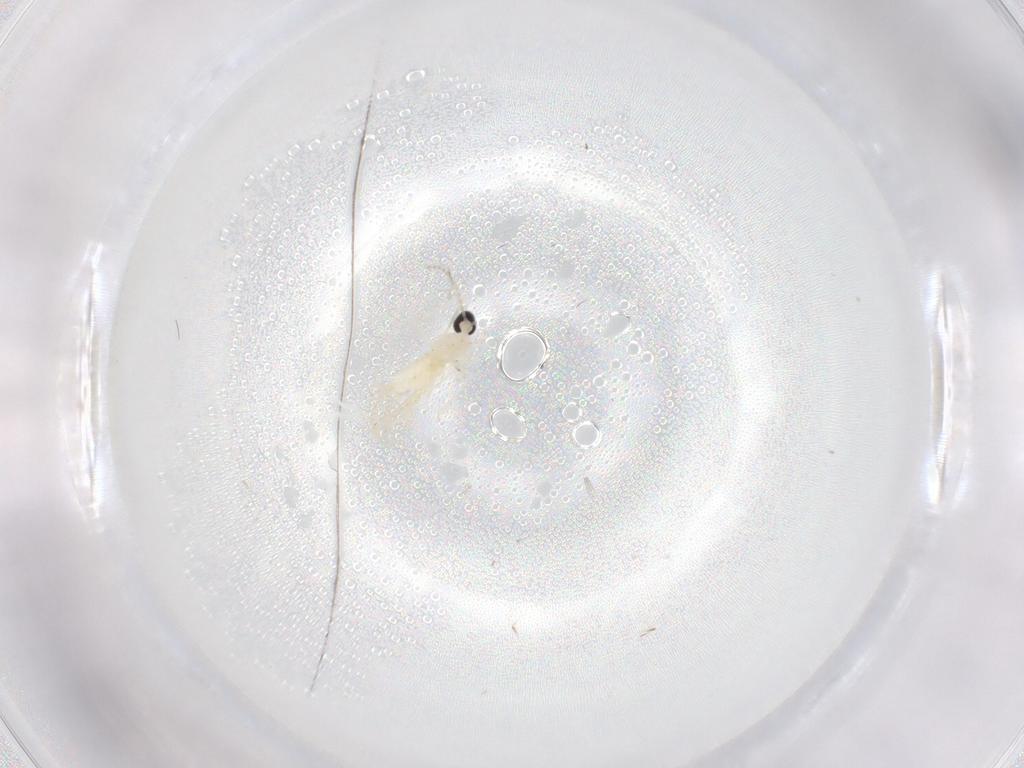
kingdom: Animalia
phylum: Arthropoda
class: Insecta
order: Diptera
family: Cecidomyiidae
